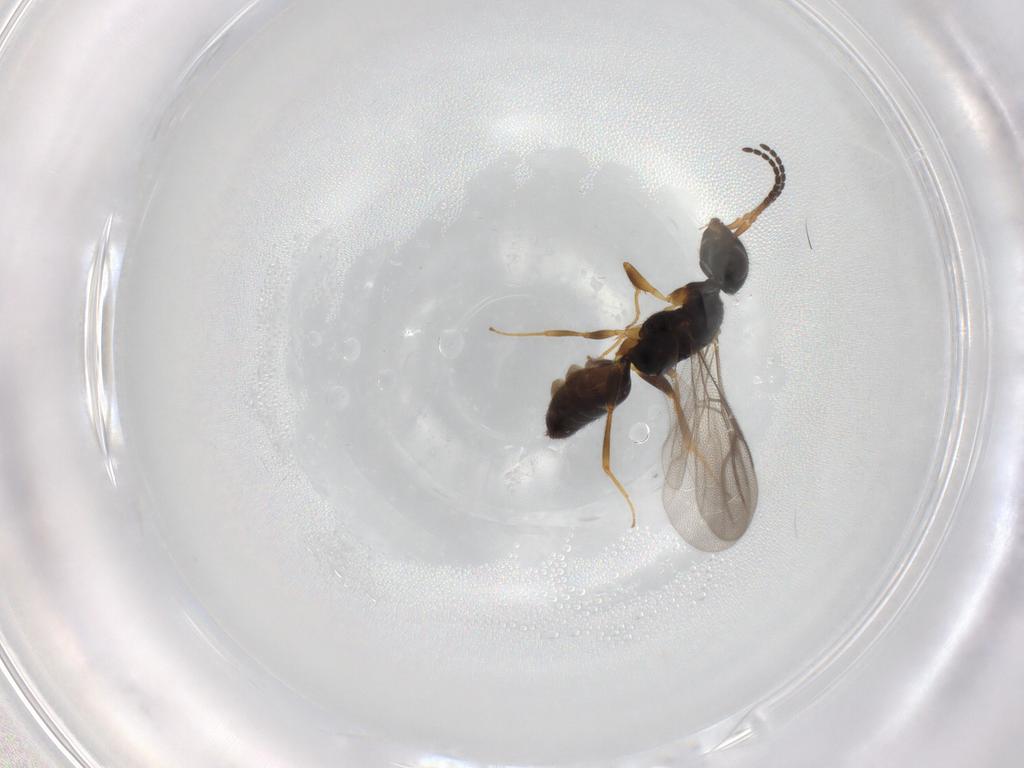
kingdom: Animalia
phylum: Arthropoda
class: Insecta
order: Hymenoptera
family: Bethylidae
